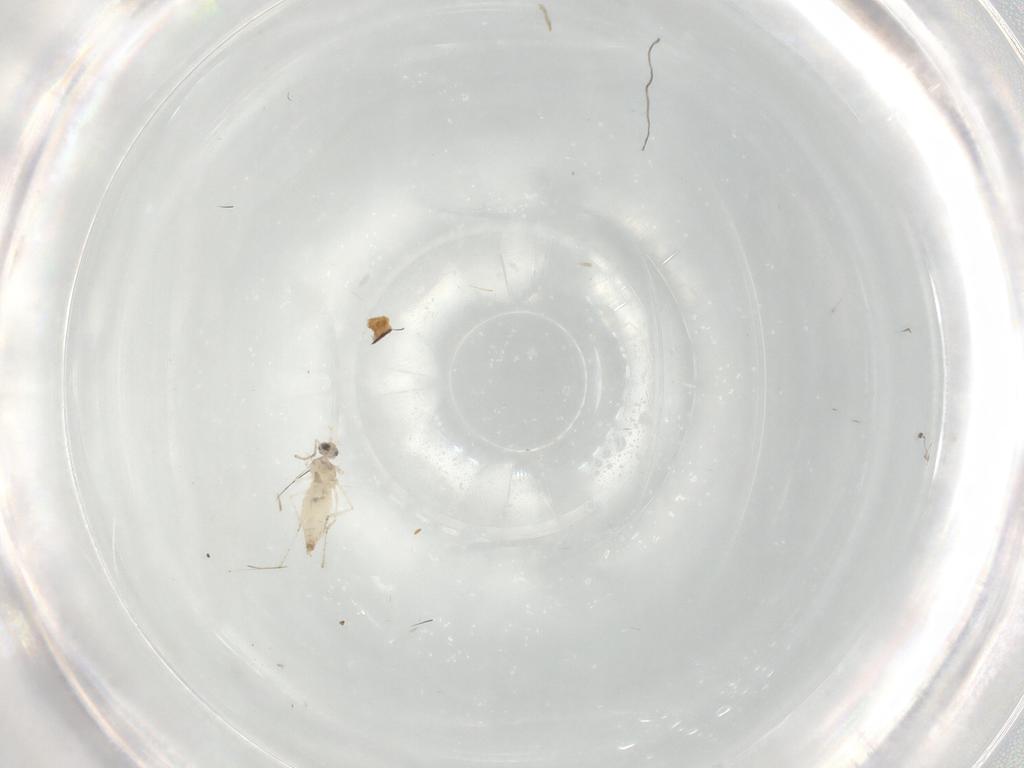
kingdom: Animalia
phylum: Arthropoda
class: Insecta
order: Diptera
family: Cecidomyiidae
